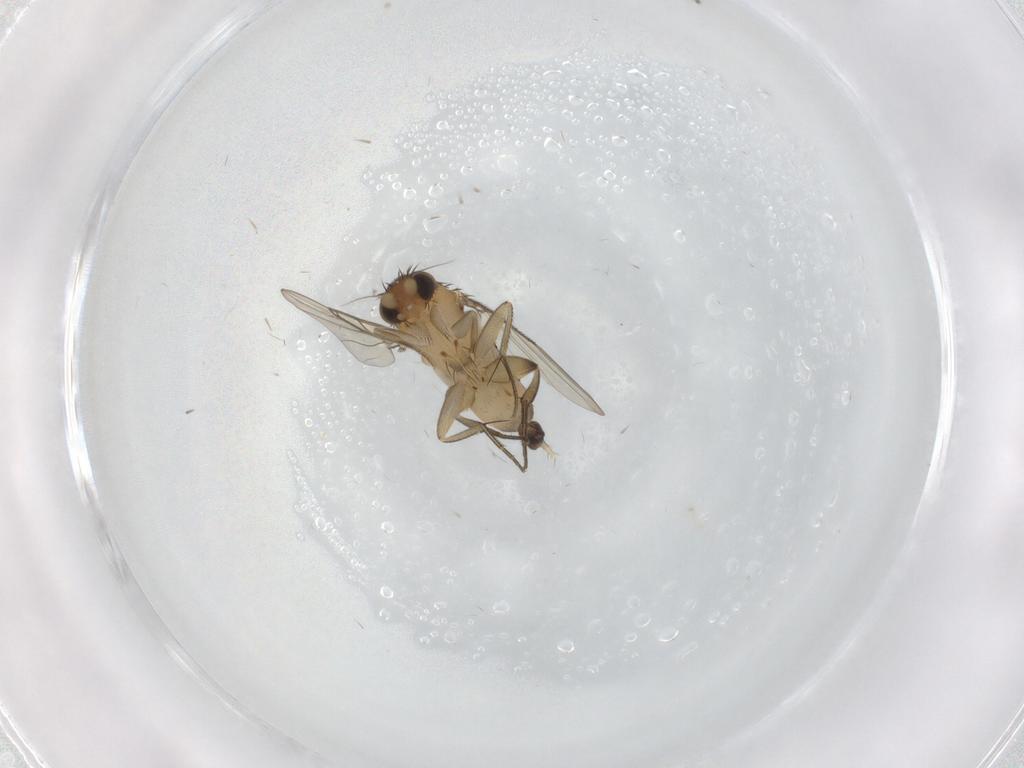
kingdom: Animalia
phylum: Arthropoda
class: Insecta
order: Diptera
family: Phoridae
